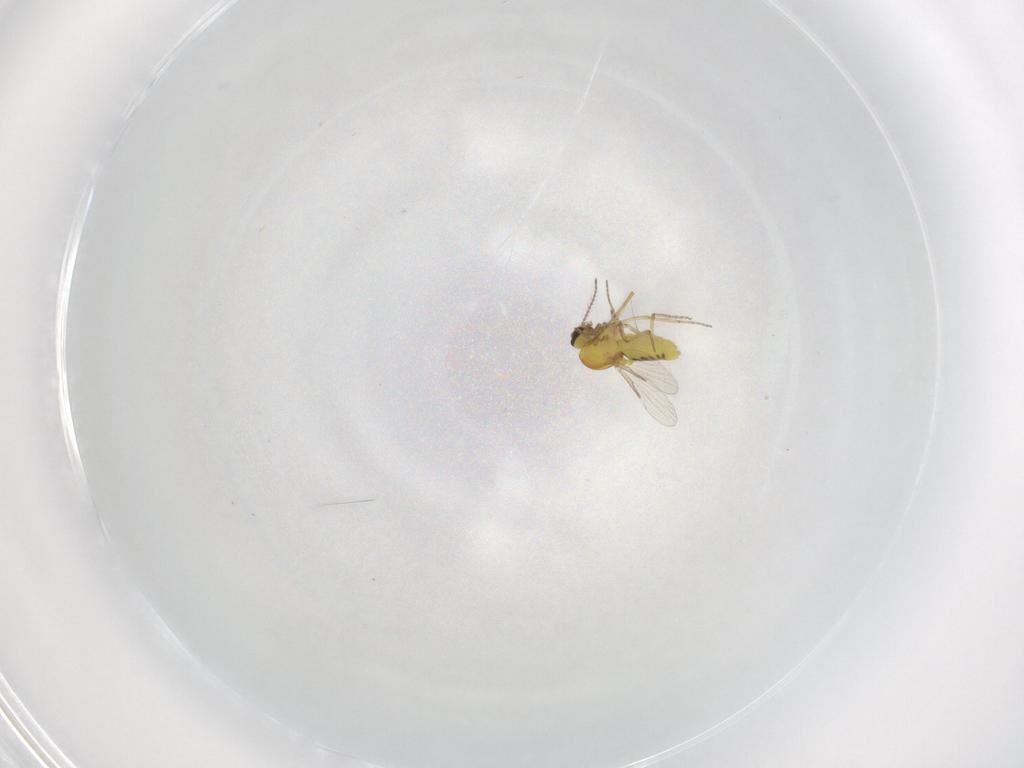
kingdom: Animalia
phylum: Arthropoda
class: Insecta
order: Diptera
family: Ceratopogonidae
